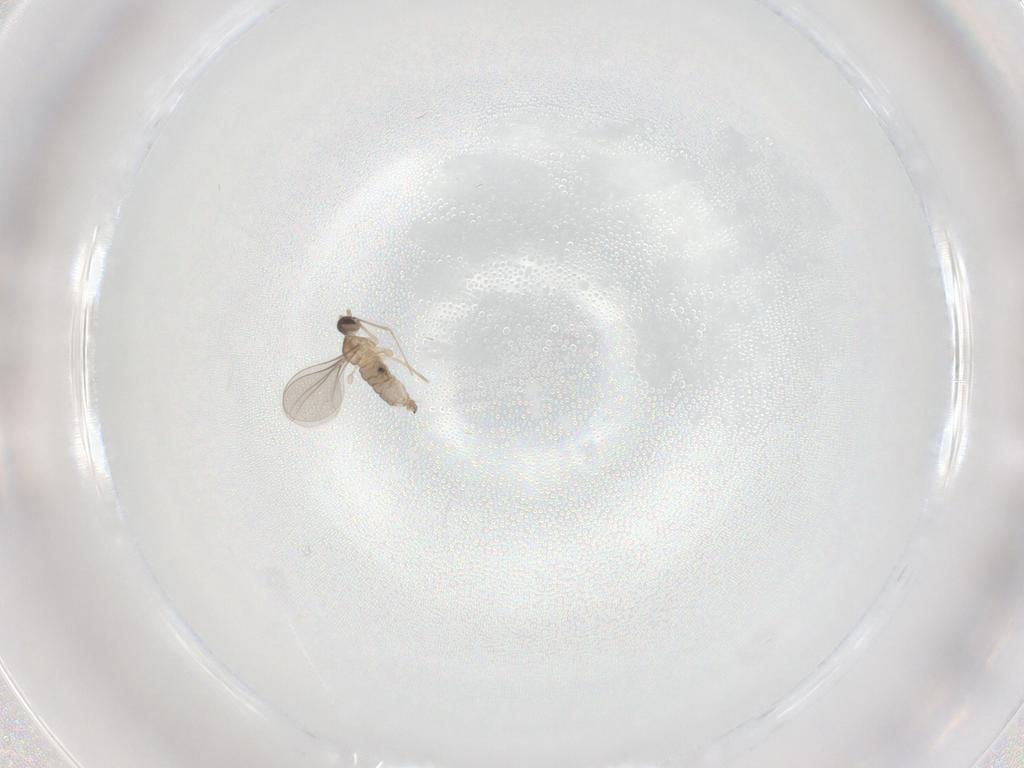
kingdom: Animalia
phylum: Arthropoda
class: Insecta
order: Diptera
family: Cecidomyiidae
